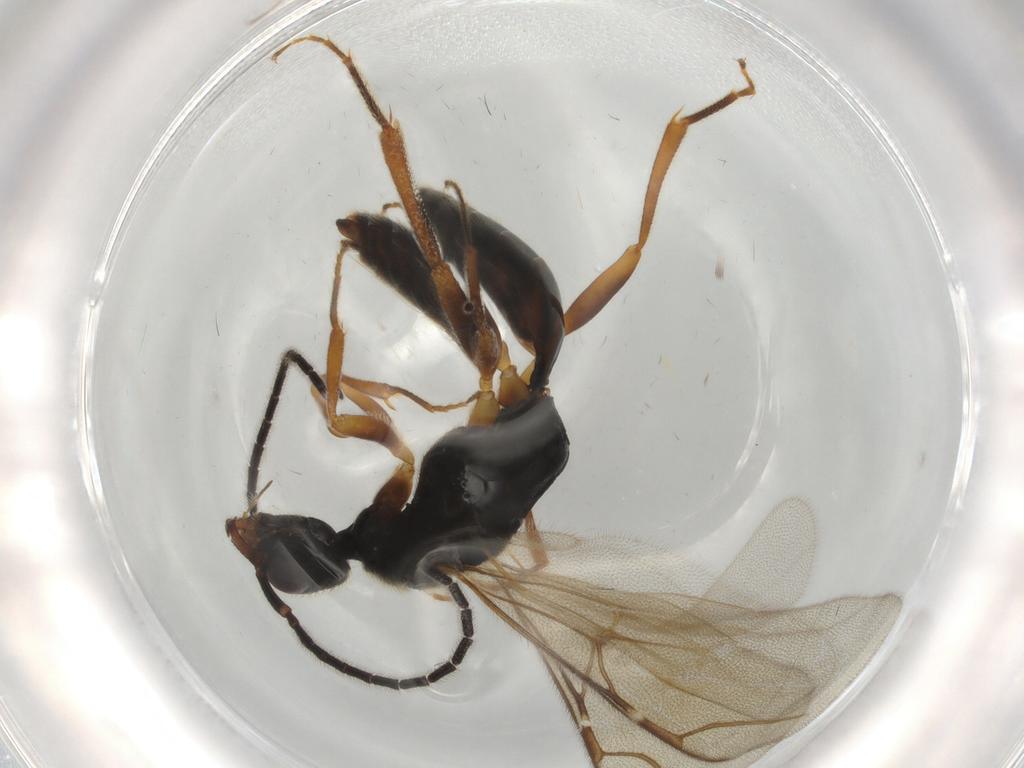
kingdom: Animalia
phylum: Arthropoda
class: Insecta
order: Hymenoptera
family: Bethylidae
